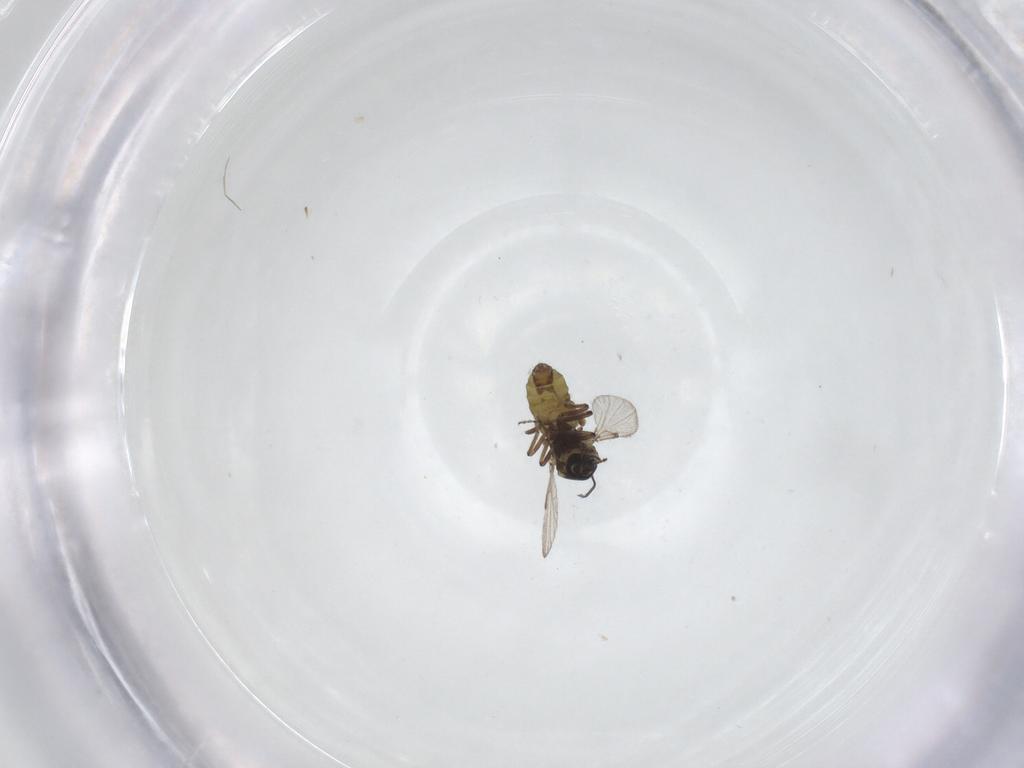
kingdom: Animalia
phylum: Arthropoda
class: Insecta
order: Diptera
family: Ceratopogonidae
